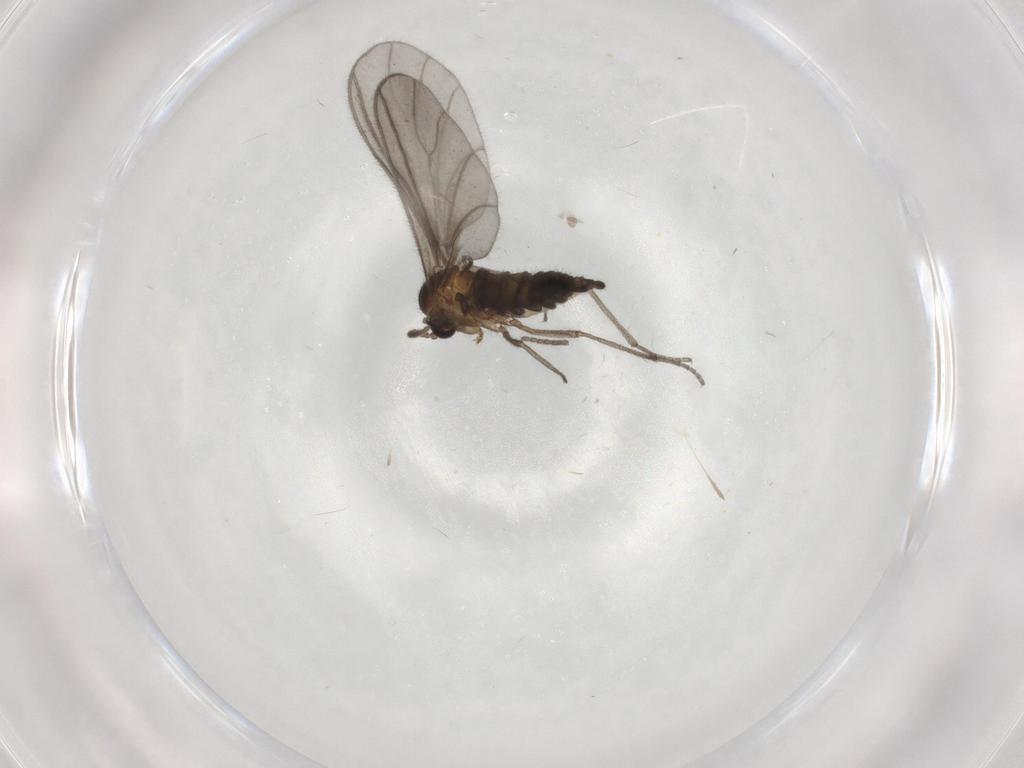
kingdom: Animalia
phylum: Arthropoda
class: Insecta
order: Diptera
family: Sciaridae
